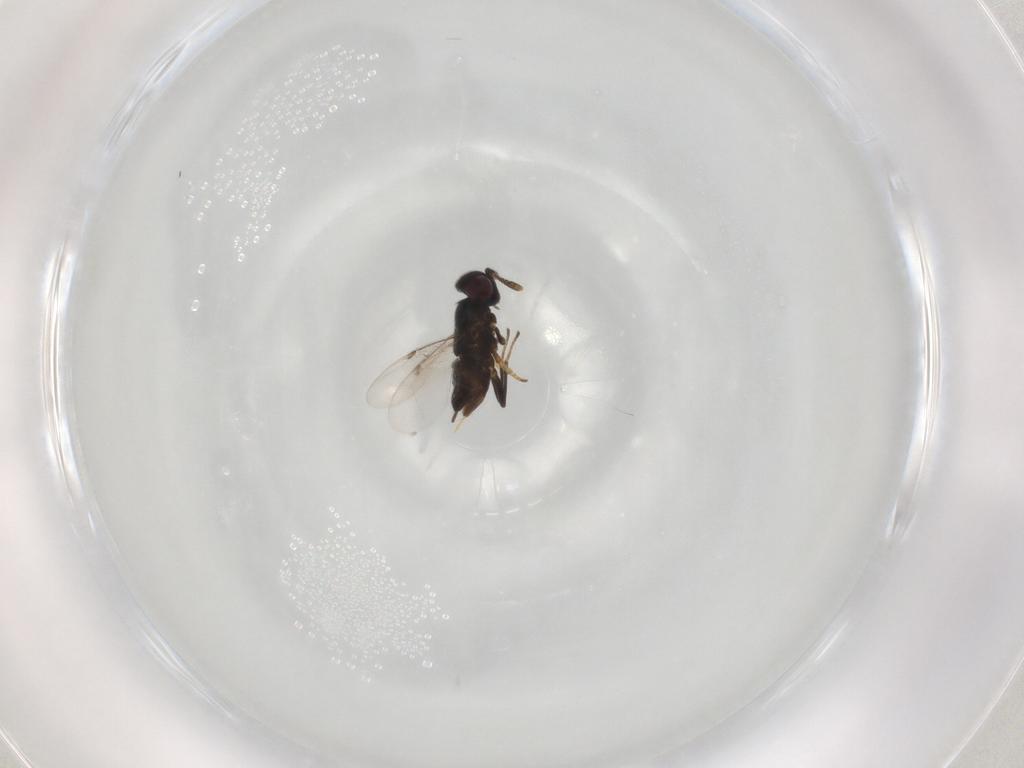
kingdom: Animalia
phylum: Arthropoda
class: Insecta
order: Hymenoptera
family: Encyrtidae
